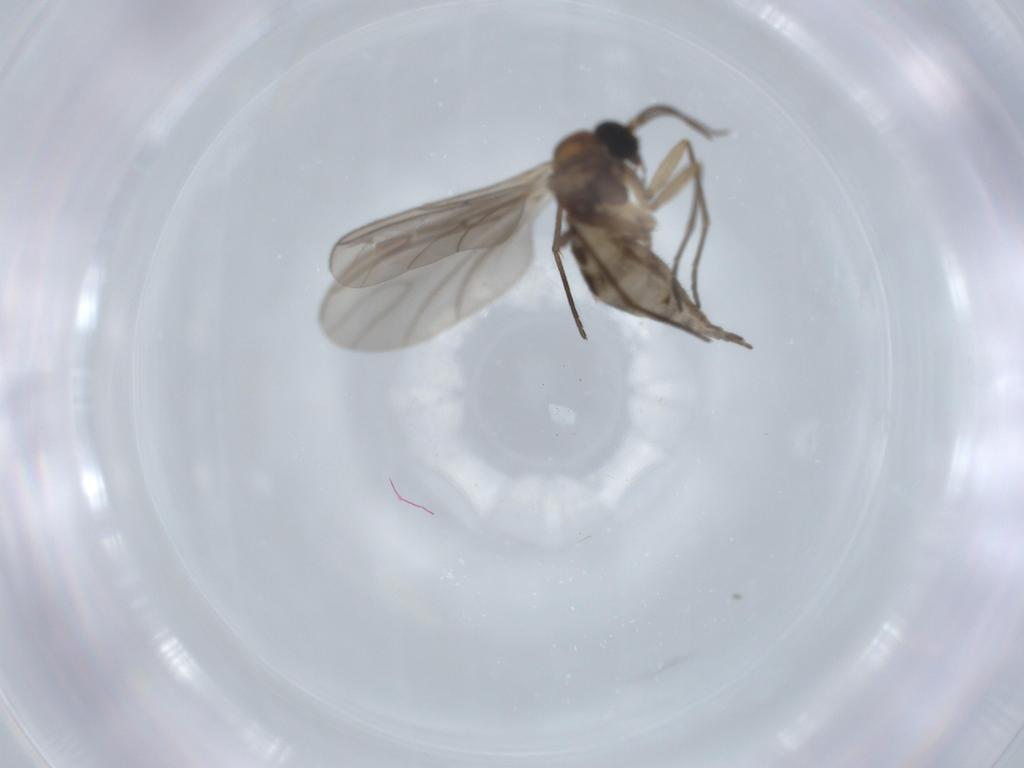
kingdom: Animalia
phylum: Arthropoda
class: Insecta
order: Diptera
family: Sciaridae
